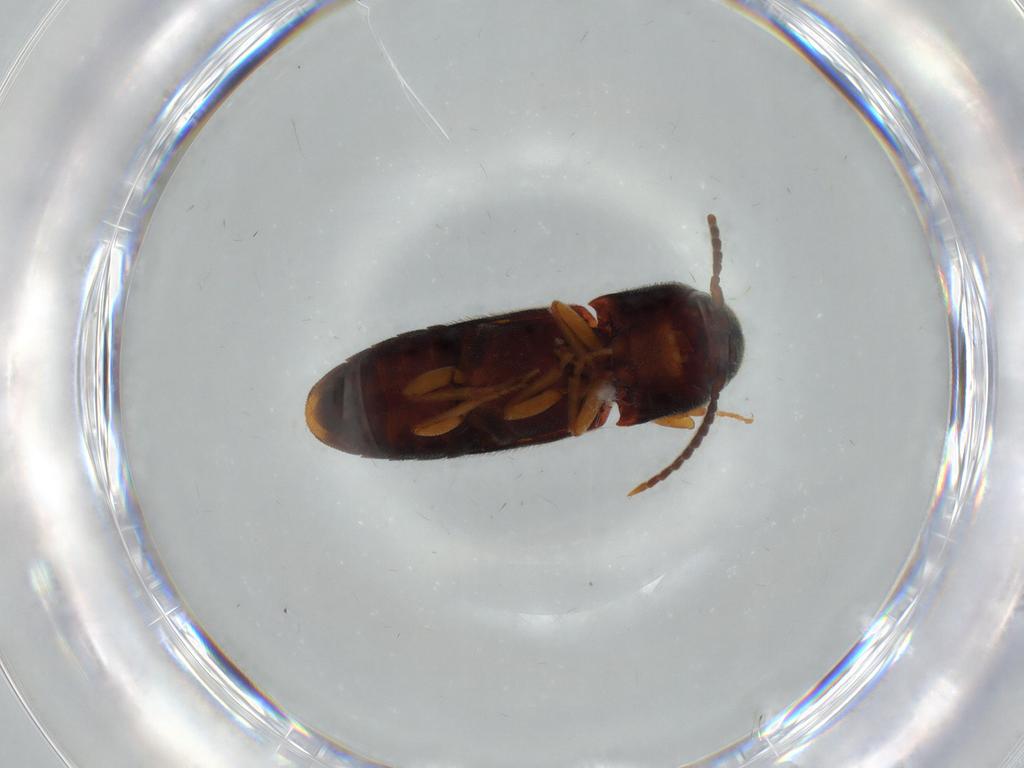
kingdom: Animalia
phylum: Arthropoda
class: Insecta
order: Coleoptera
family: Eucnemidae
